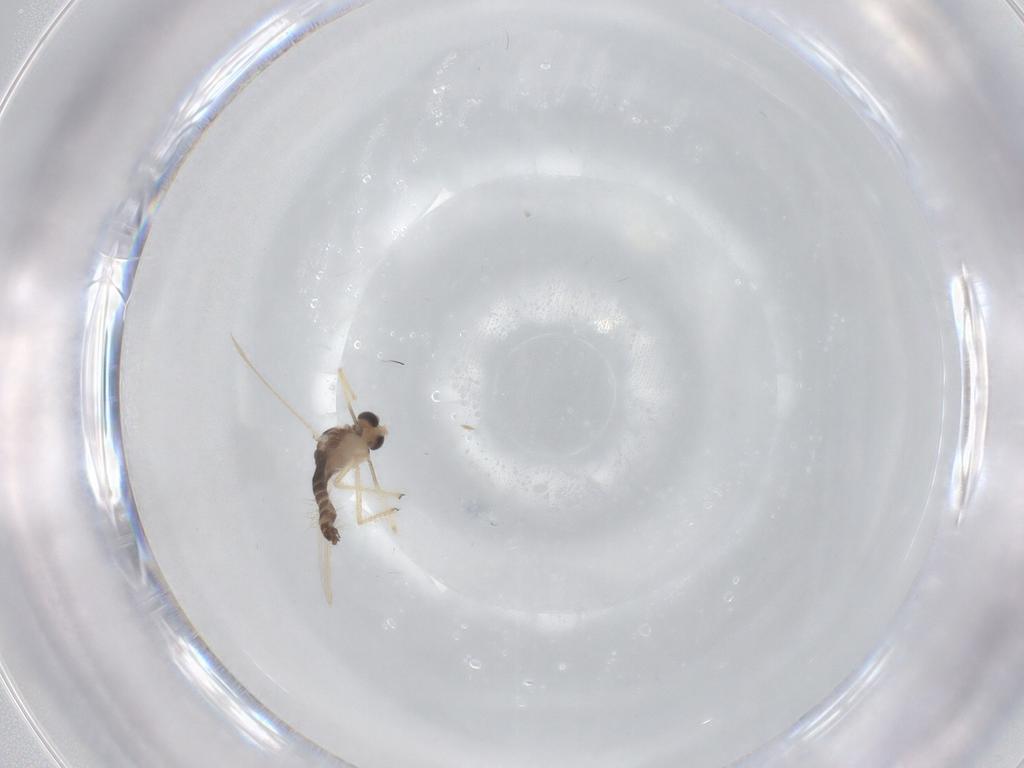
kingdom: Animalia
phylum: Arthropoda
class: Insecta
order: Diptera
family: Chironomidae
